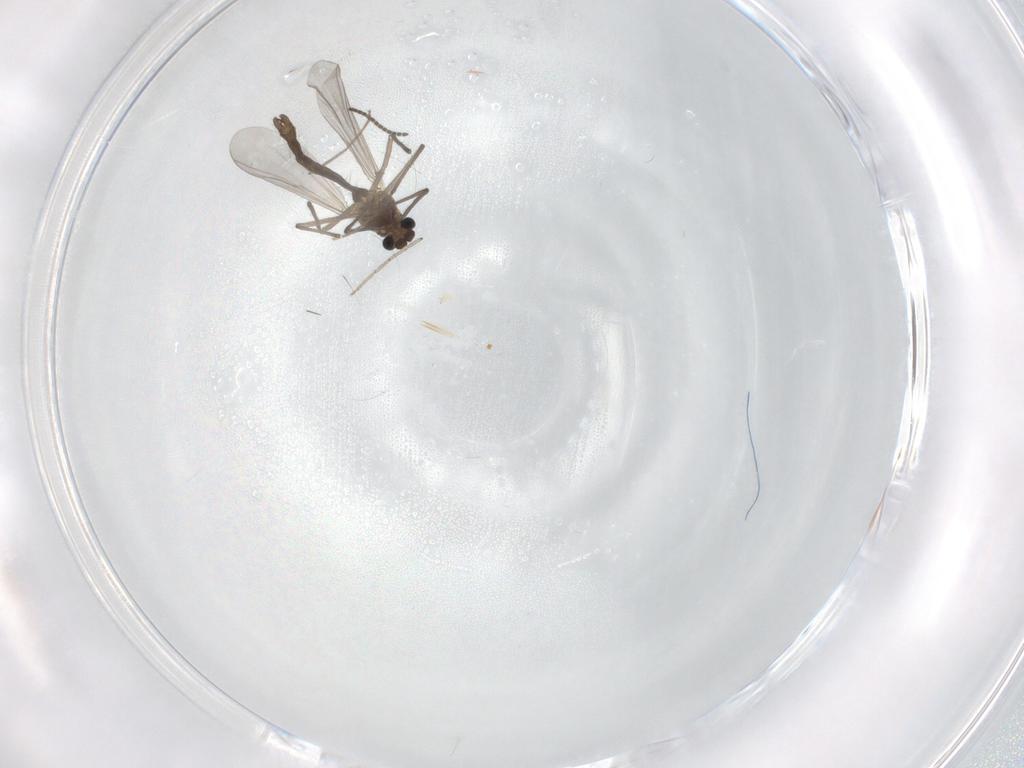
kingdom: Animalia
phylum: Arthropoda
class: Insecta
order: Diptera
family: Chironomidae
